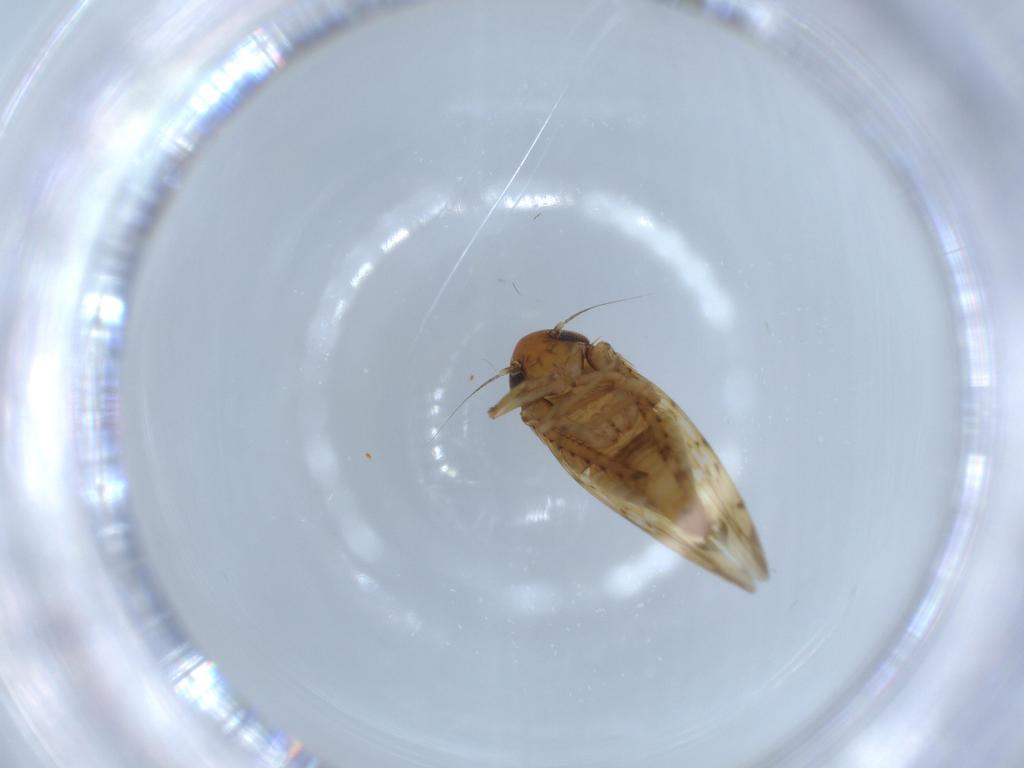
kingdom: Animalia
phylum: Arthropoda
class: Insecta
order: Hemiptera
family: Cicadellidae
